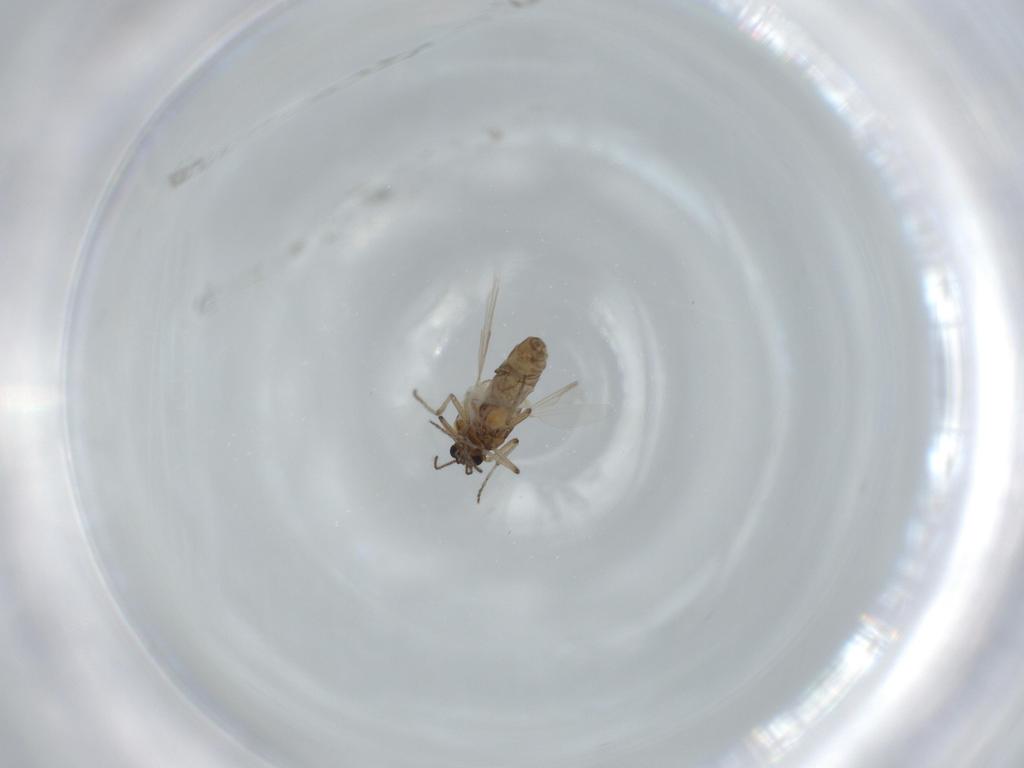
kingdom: Animalia
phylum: Arthropoda
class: Insecta
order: Diptera
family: Ceratopogonidae
